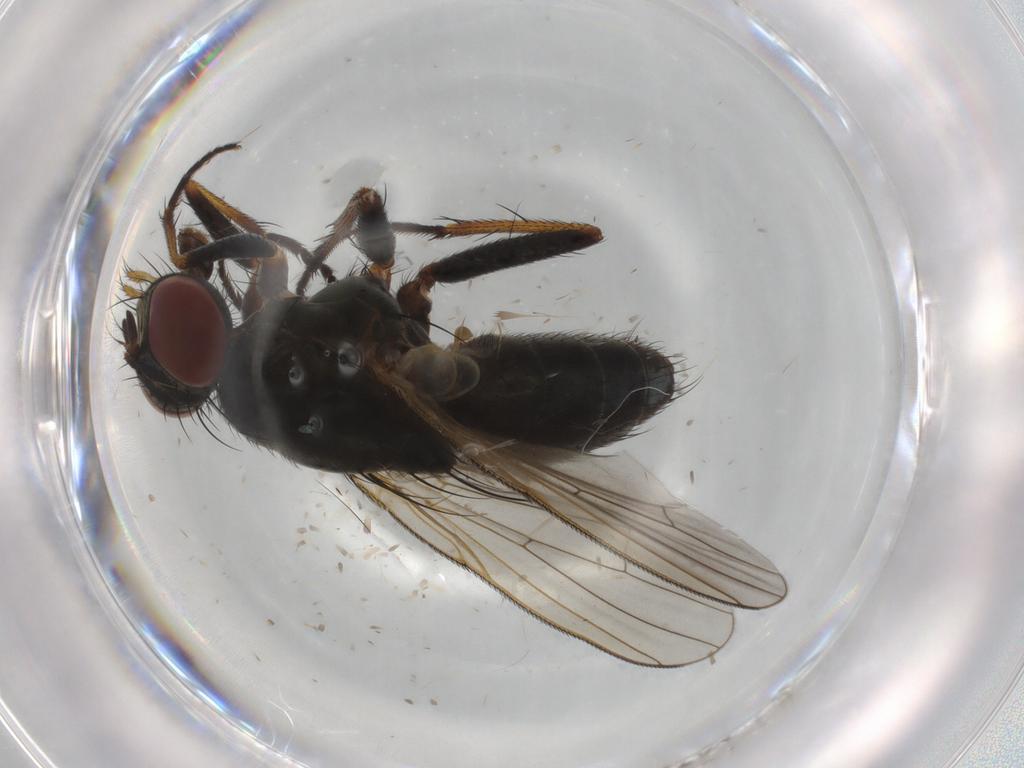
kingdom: Animalia
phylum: Arthropoda
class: Insecta
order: Diptera
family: Muscidae
